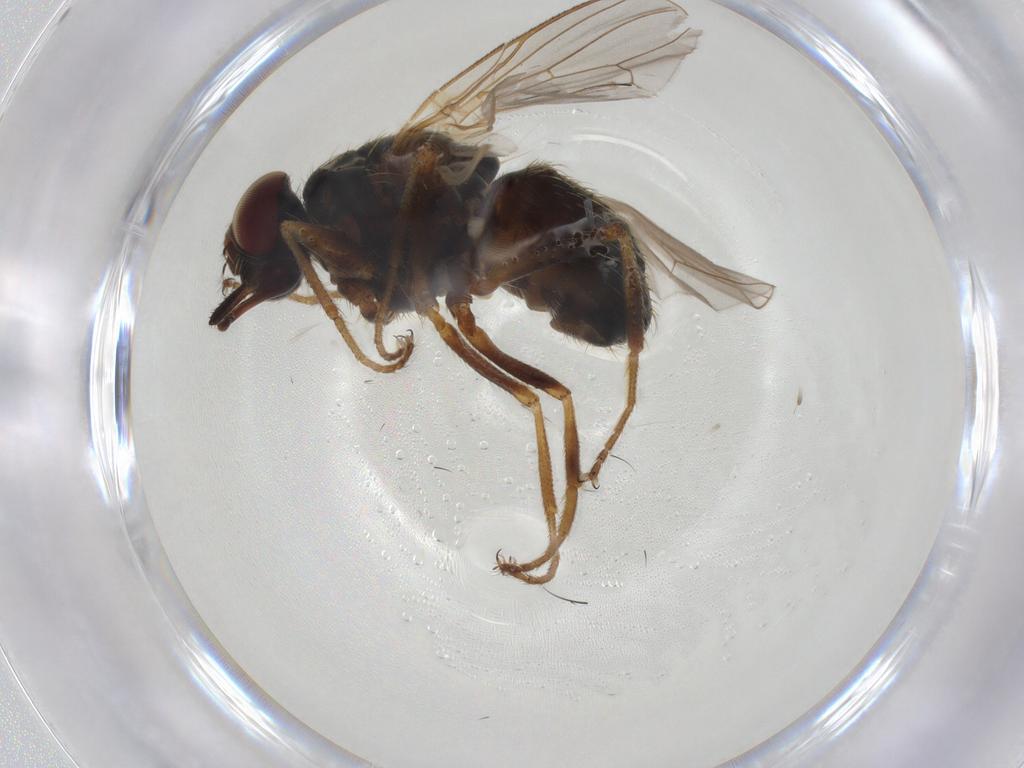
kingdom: Animalia
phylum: Arthropoda
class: Insecta
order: Diptera
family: Muscidae
